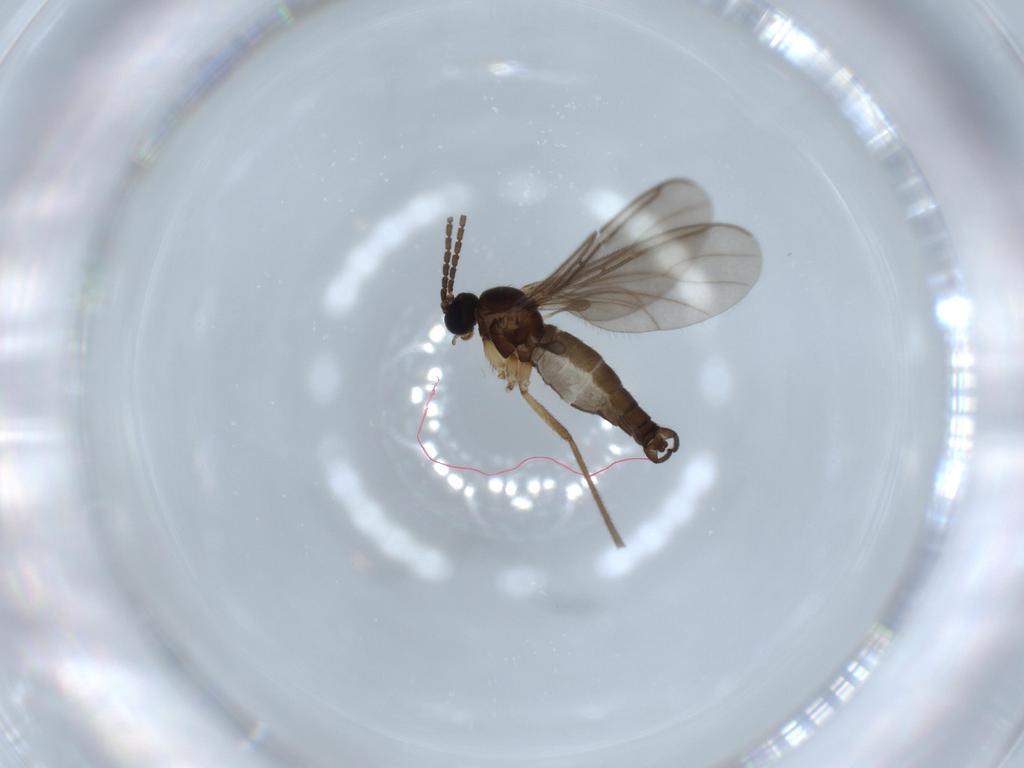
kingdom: Animalia
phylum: Arthropoda
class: Insecta
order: Diptera
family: Sciaridae
